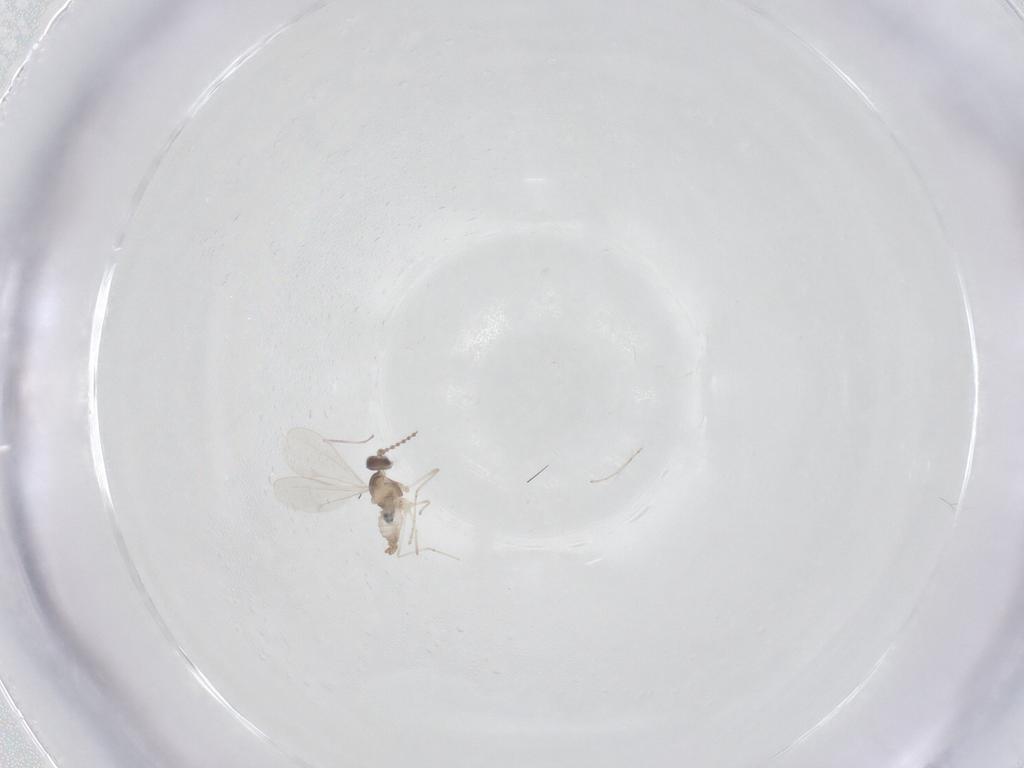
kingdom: Animalia
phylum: Arthropoda
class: Insecta
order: Diptera
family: Cecidomyiidae
